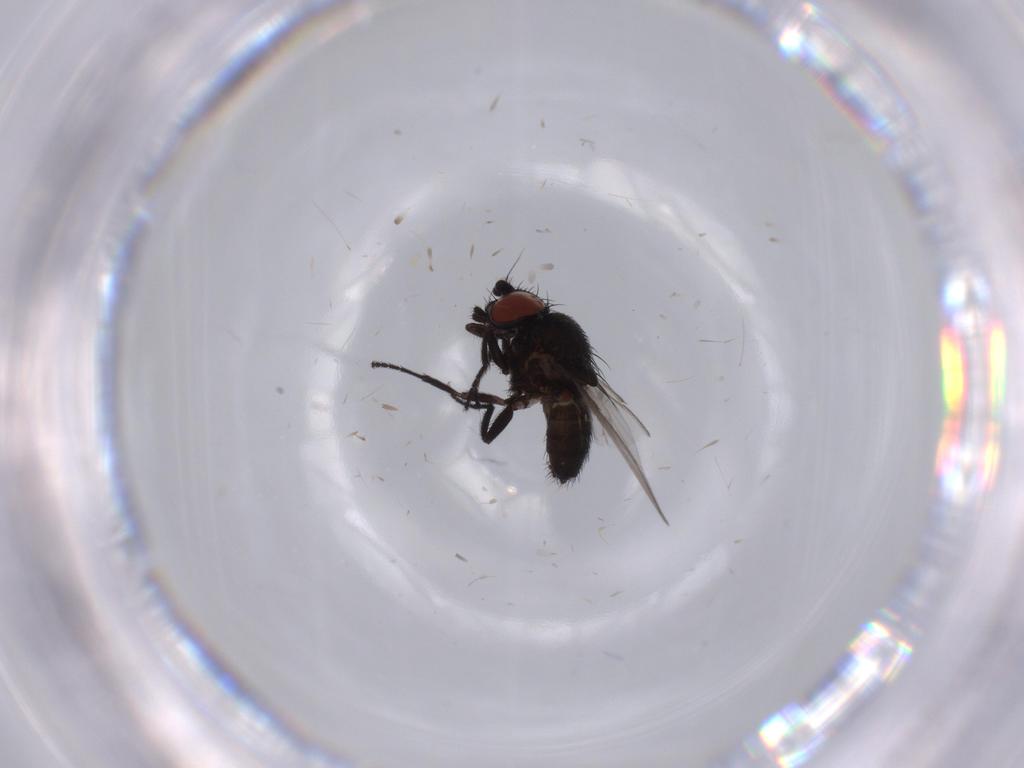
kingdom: Animalia
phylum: Arthropoda
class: Insecta
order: Diptera
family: Milichiidae
